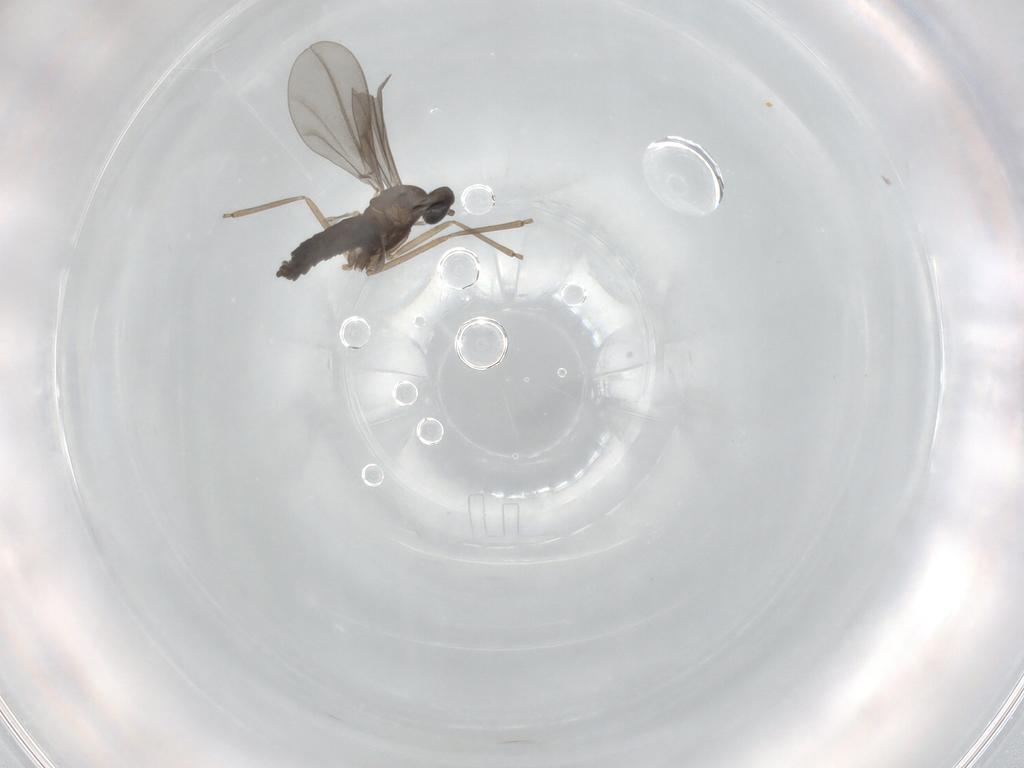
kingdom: Animalia
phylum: Arthropoda
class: Insecta
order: Diptera
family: Cecidomyiidae
